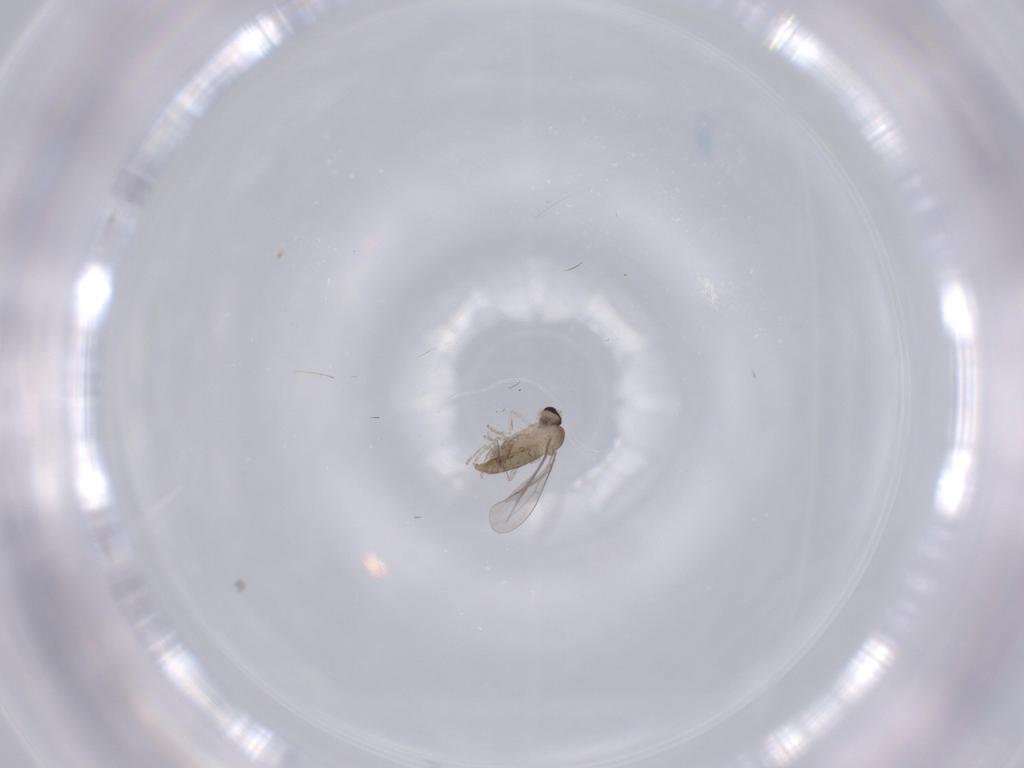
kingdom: Animalia
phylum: Arthropoda
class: Insecta
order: Diptera
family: Cecidomyiidae
